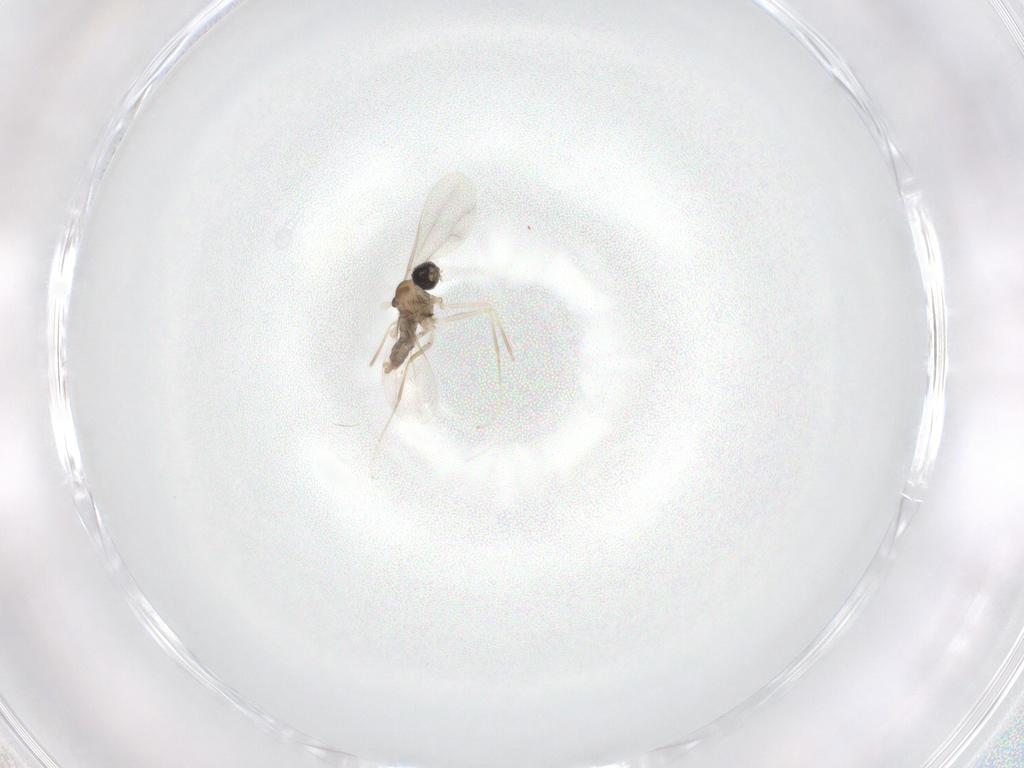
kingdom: Animalia
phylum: Arthropoda
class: Insecta
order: Diptera
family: Cecidomyiidae
